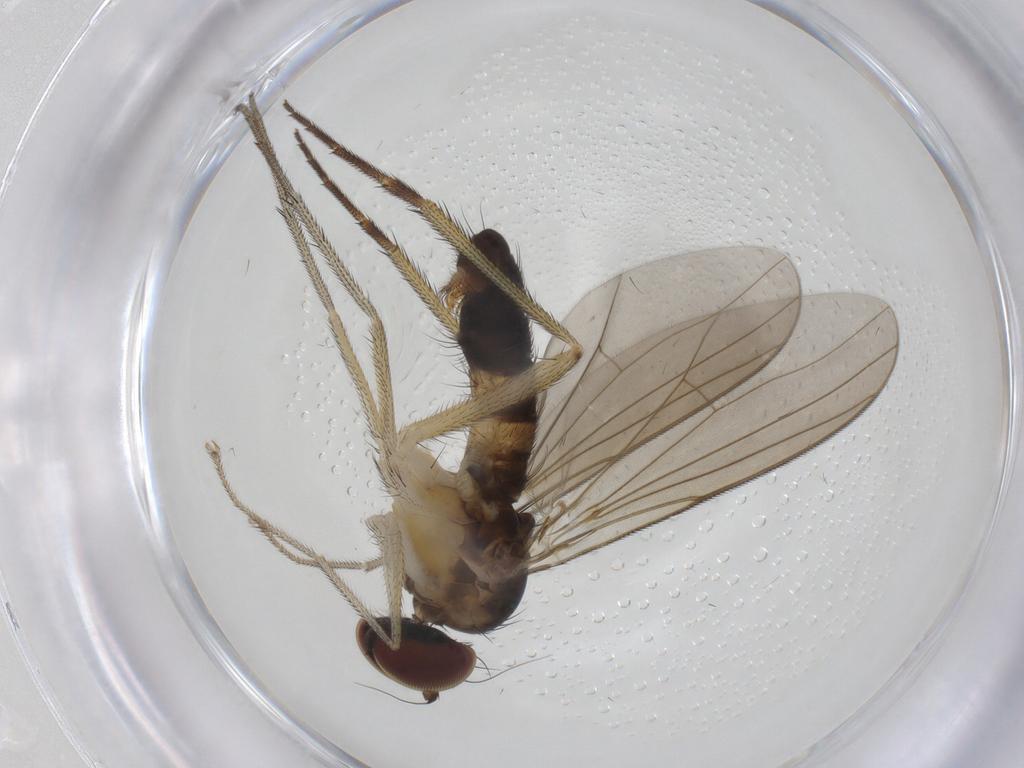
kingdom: Animalia
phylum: Arthropoda
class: Insecta
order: Diptera
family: Dolichopodidae
